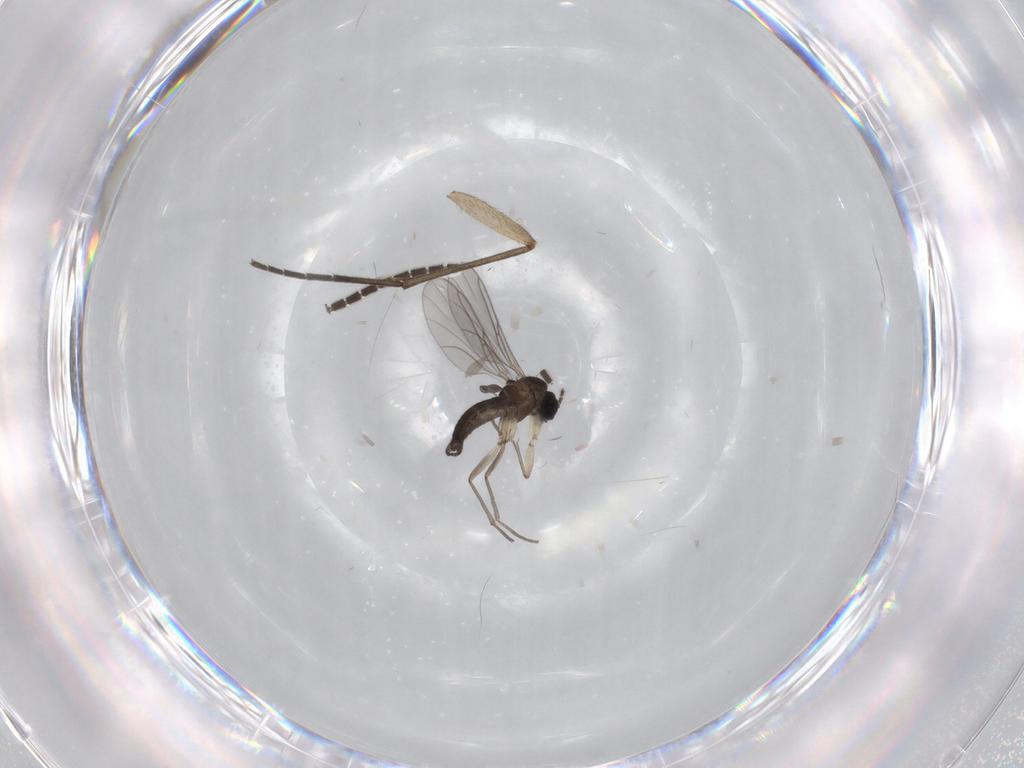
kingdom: Animalia
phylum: Arthropoda
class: Insecta
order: Diptera
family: Sciaridae
